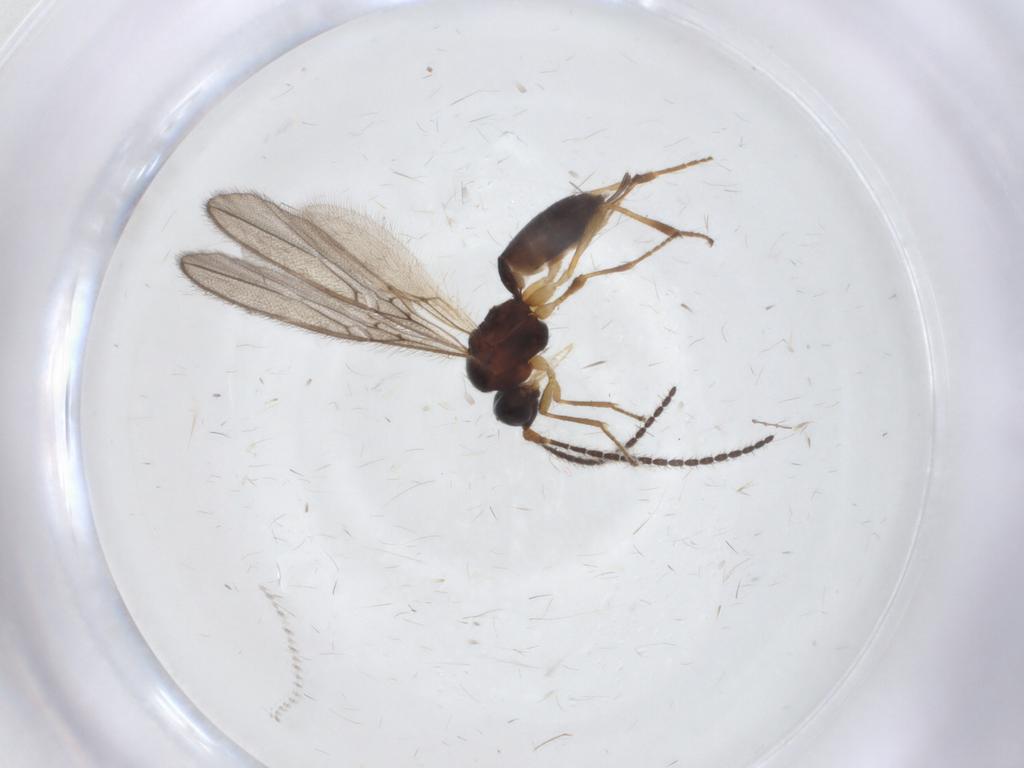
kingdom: Animalia
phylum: Arthropoda
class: Insecta
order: Hymenoptera
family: Braconidae
